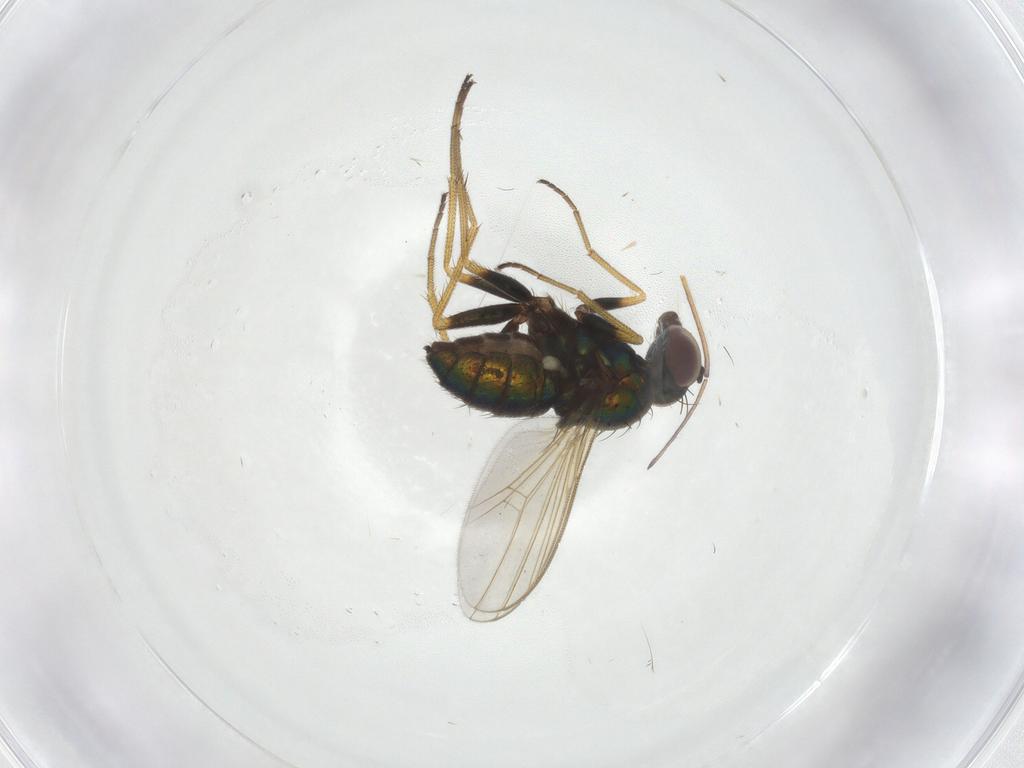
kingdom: Animalia
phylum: Arthropoda
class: Insecta
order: Diptera
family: Dolichopodidae
